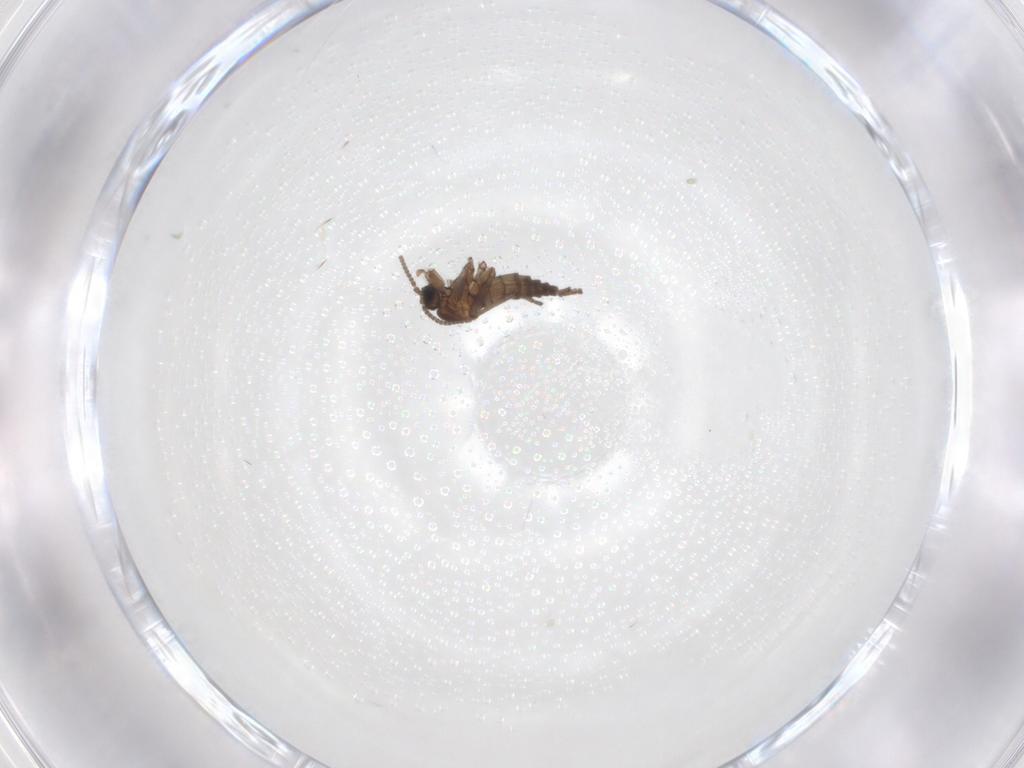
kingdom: Animalia
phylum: Arthropoda
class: Insecta
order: Diptera
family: Sciaridae
